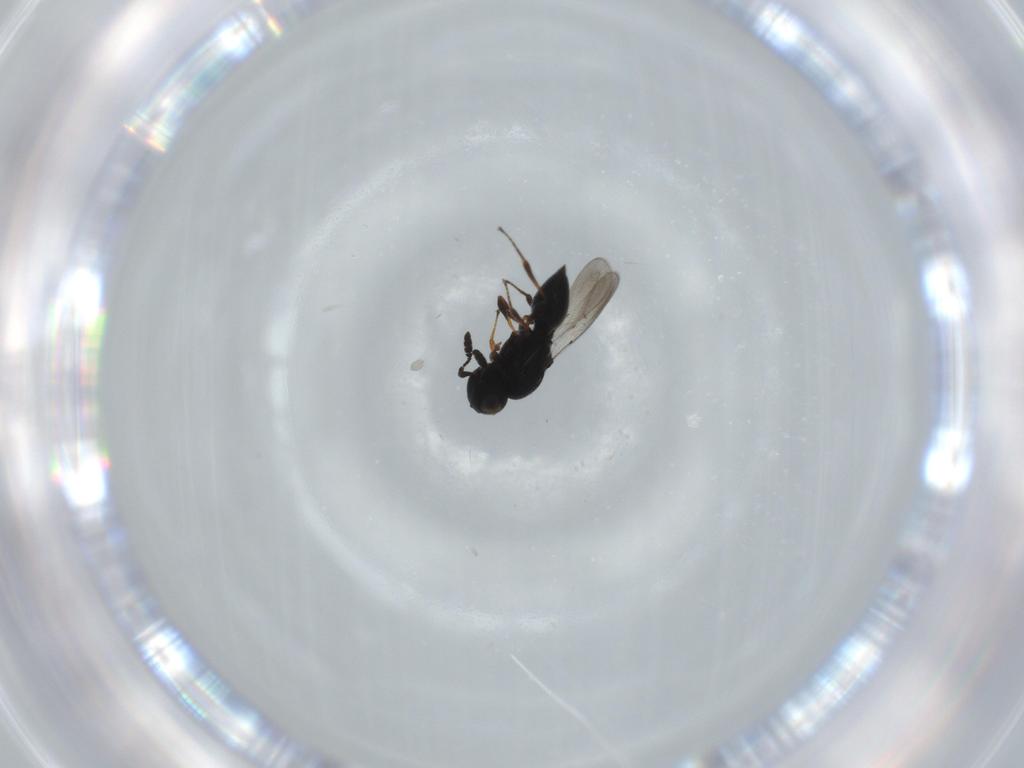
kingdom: Animalia
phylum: Arthropoda
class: Insecta
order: Hymenoptera
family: Platygastridae
